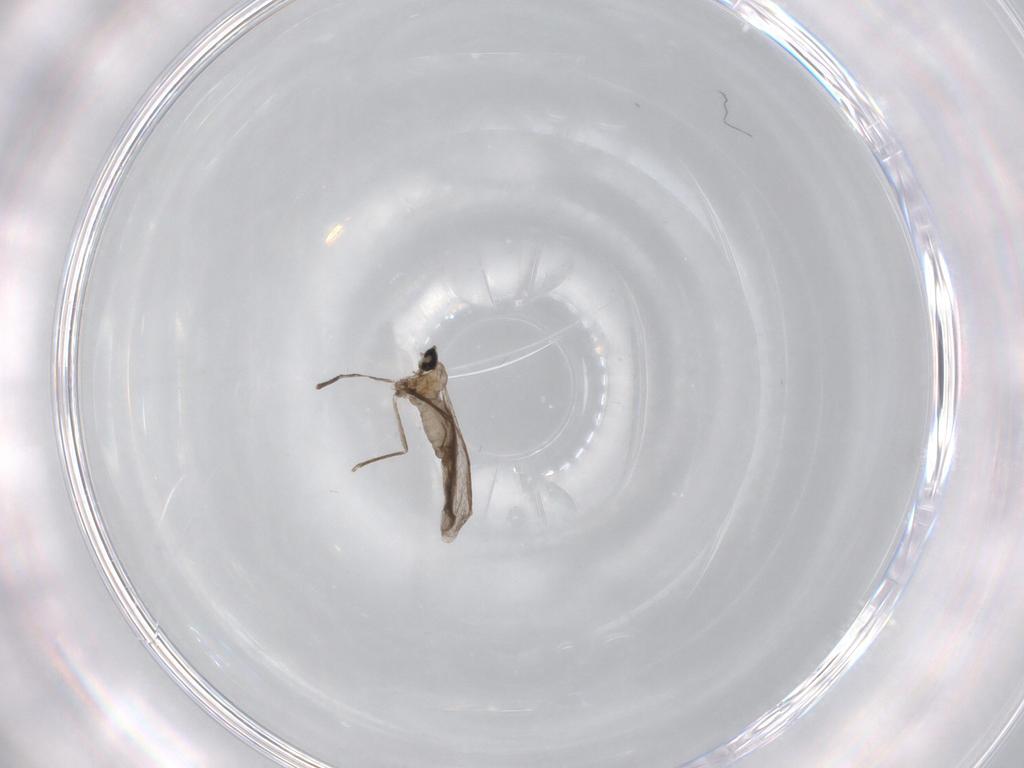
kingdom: Animalia
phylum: Arthropoda
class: Insecta
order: Diptera
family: Cecidomyiidae
